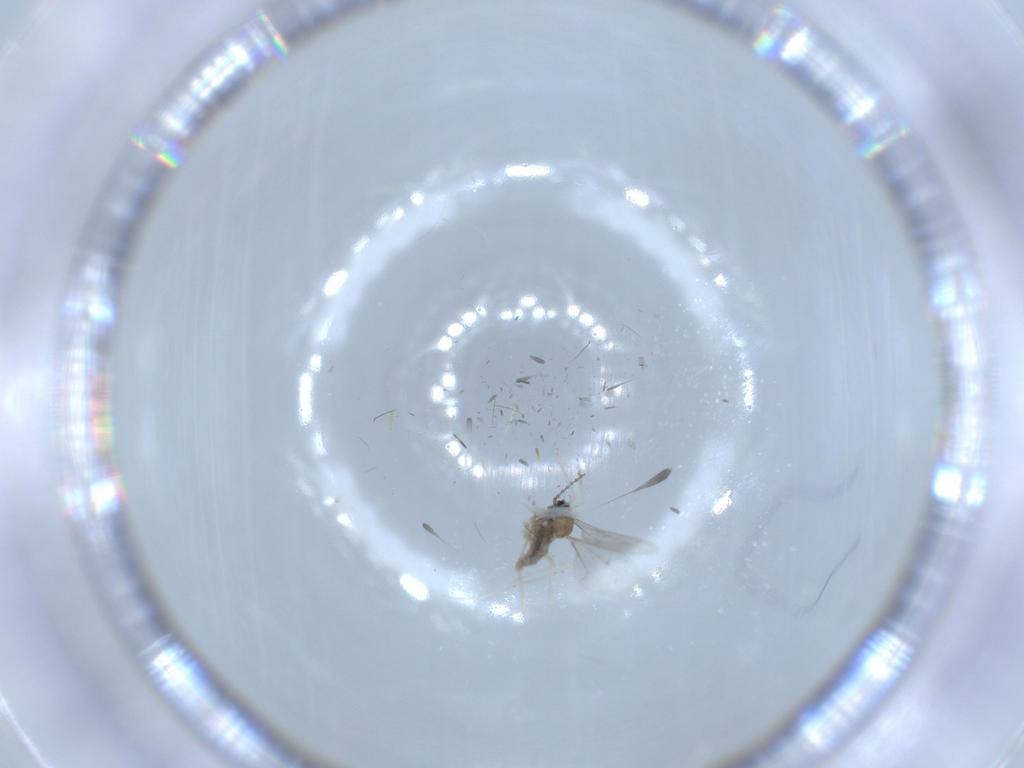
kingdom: Animalia
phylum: Arthropoda
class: Insecta
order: Diptera
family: Cecidomyiidae
